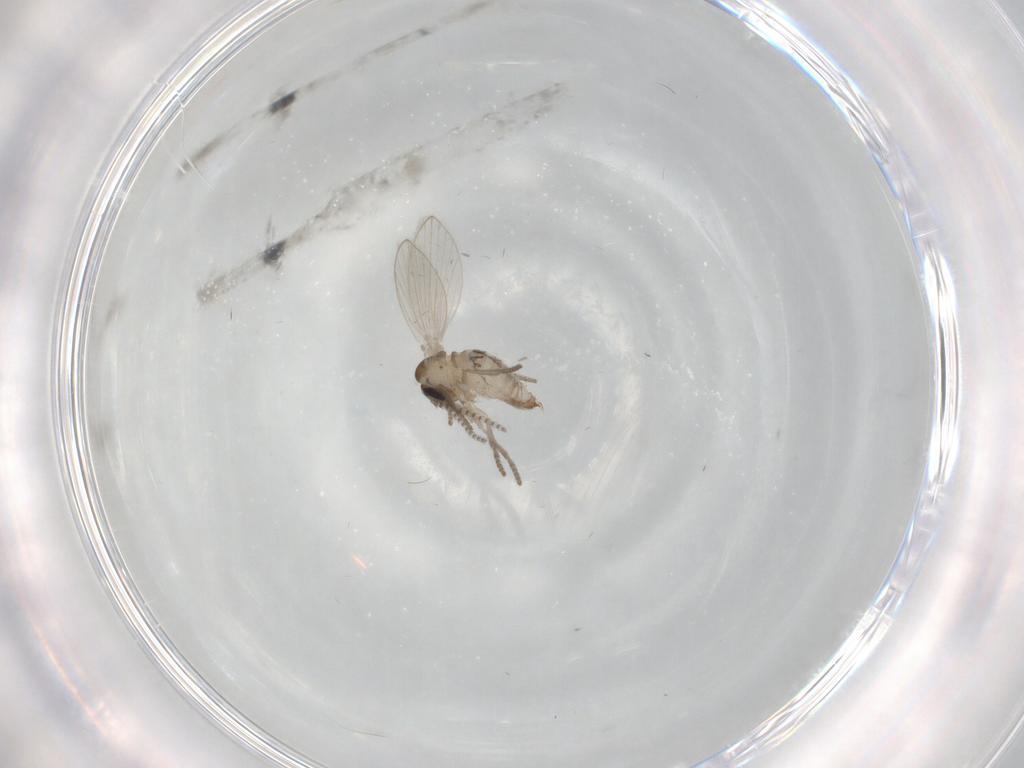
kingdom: Animalia
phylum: Arthropoda
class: Insecta
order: Diptera
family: Psychodidae
